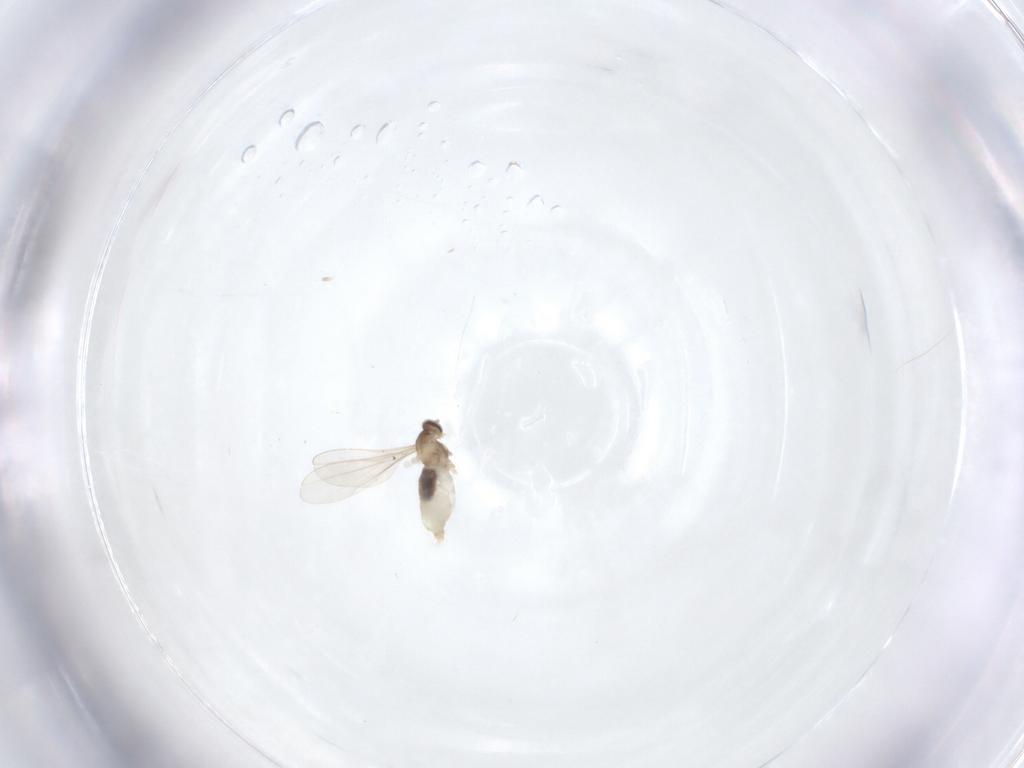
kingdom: Animalia
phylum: Arthropoda
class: Insecta
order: Diptera
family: Cecidomyiidae
